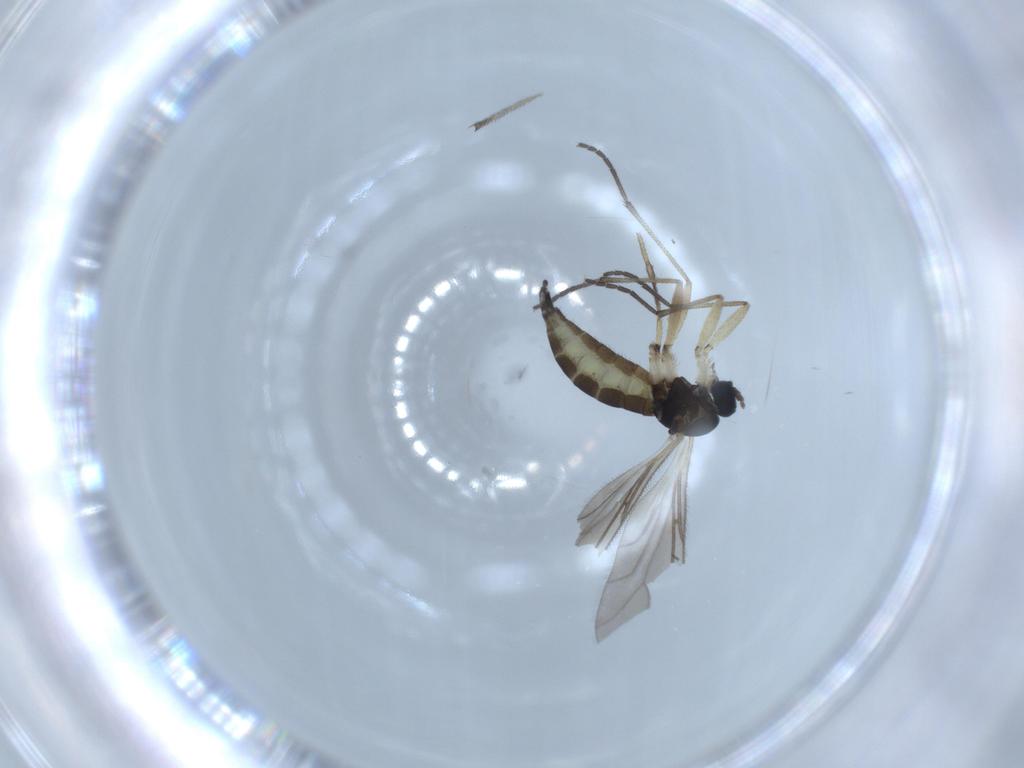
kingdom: Animalia
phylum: Arthropoda
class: Insecta
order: Diptera
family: Sciaridae
